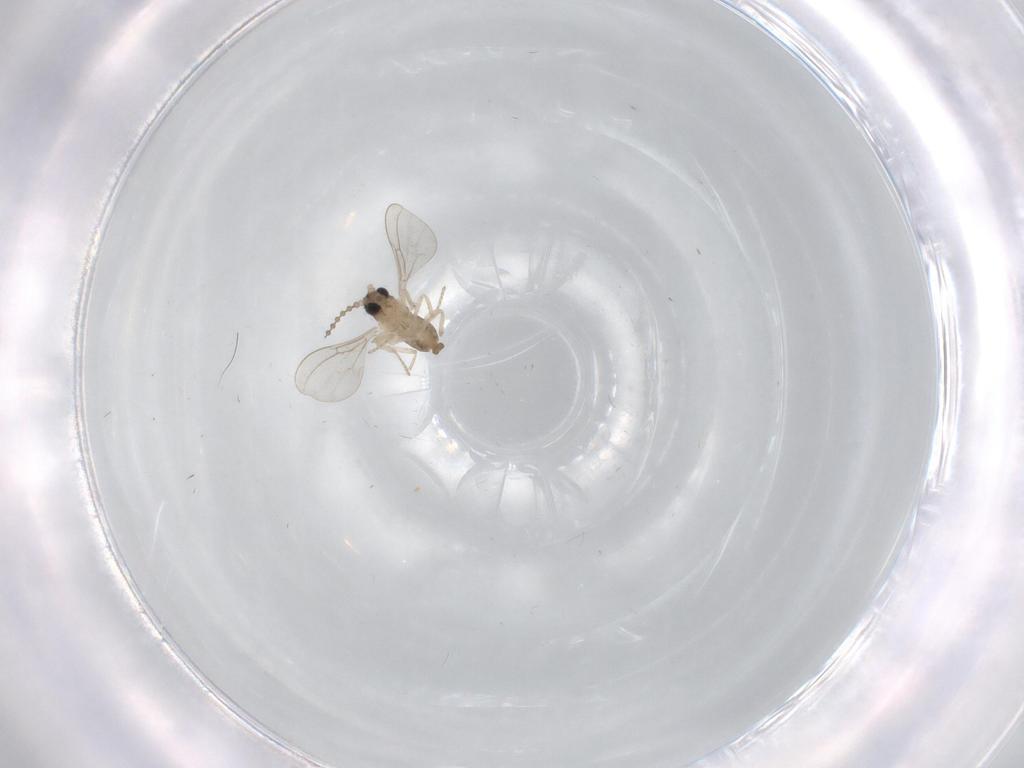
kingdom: Animalia
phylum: Arthropoda
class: Insecta
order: Diptera
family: Cecidomyiidae
